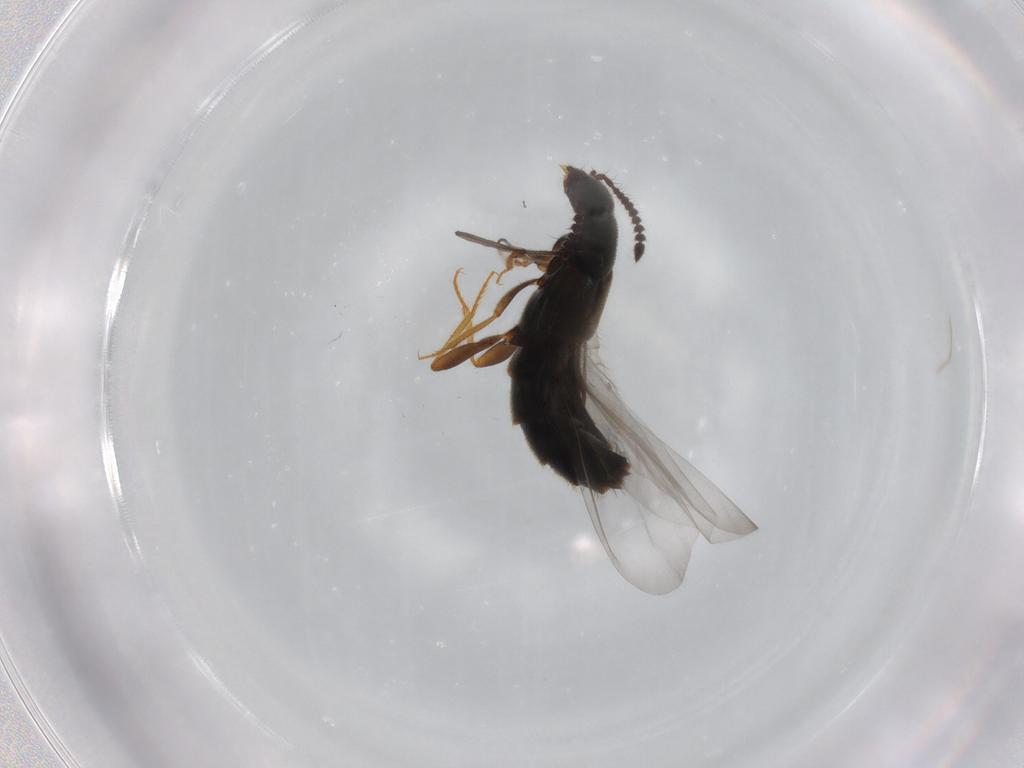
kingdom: Animalia
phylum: Arthropoda
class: Insecta
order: Coleoptera
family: Staphylinidae
